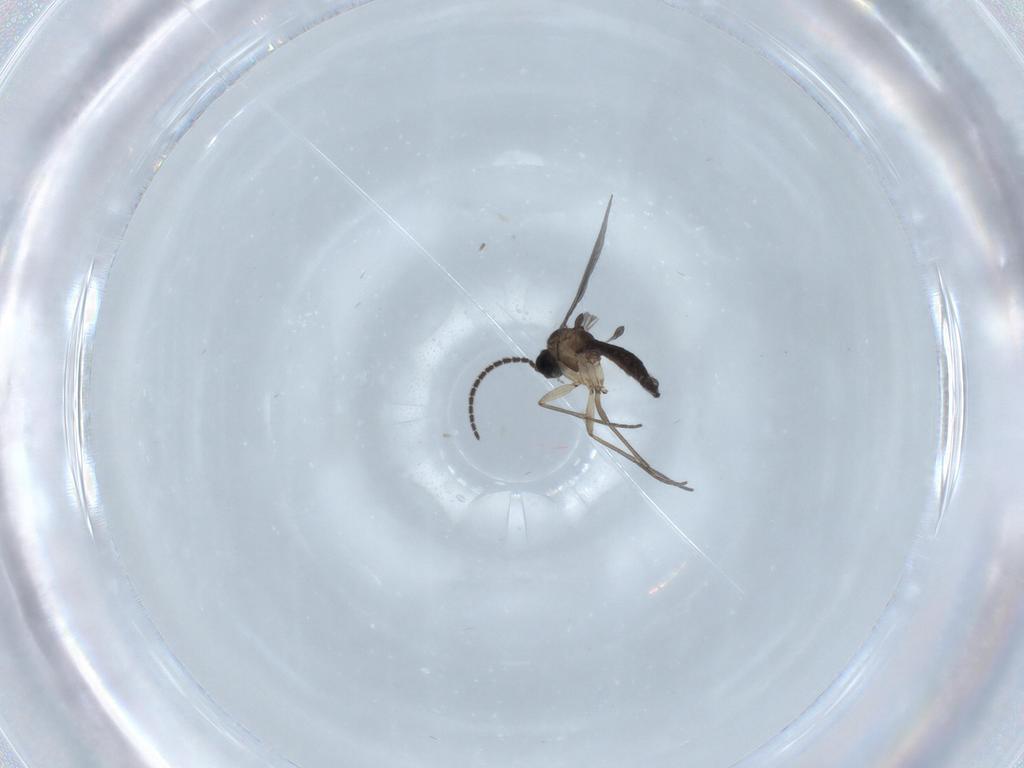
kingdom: Animalia
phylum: Arthropoda
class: Insecta
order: Diptera
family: Sciaridae
